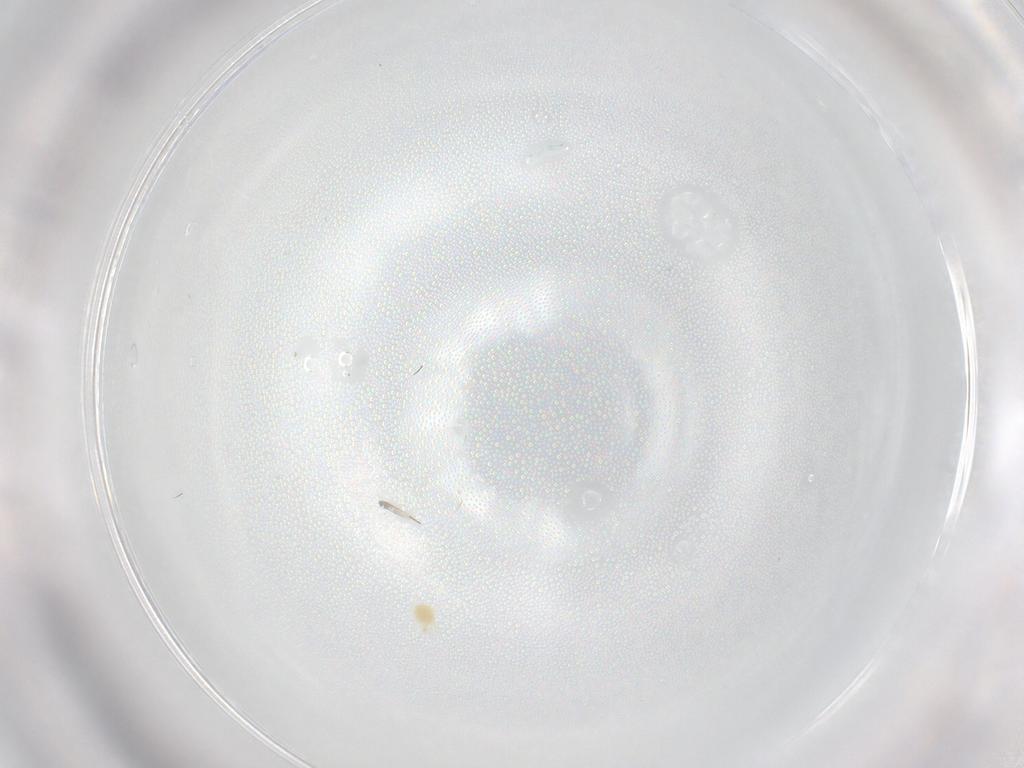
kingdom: Animalia
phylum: Arthropoda
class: Arachnida
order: Trombidiformes
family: Tetranychidae
